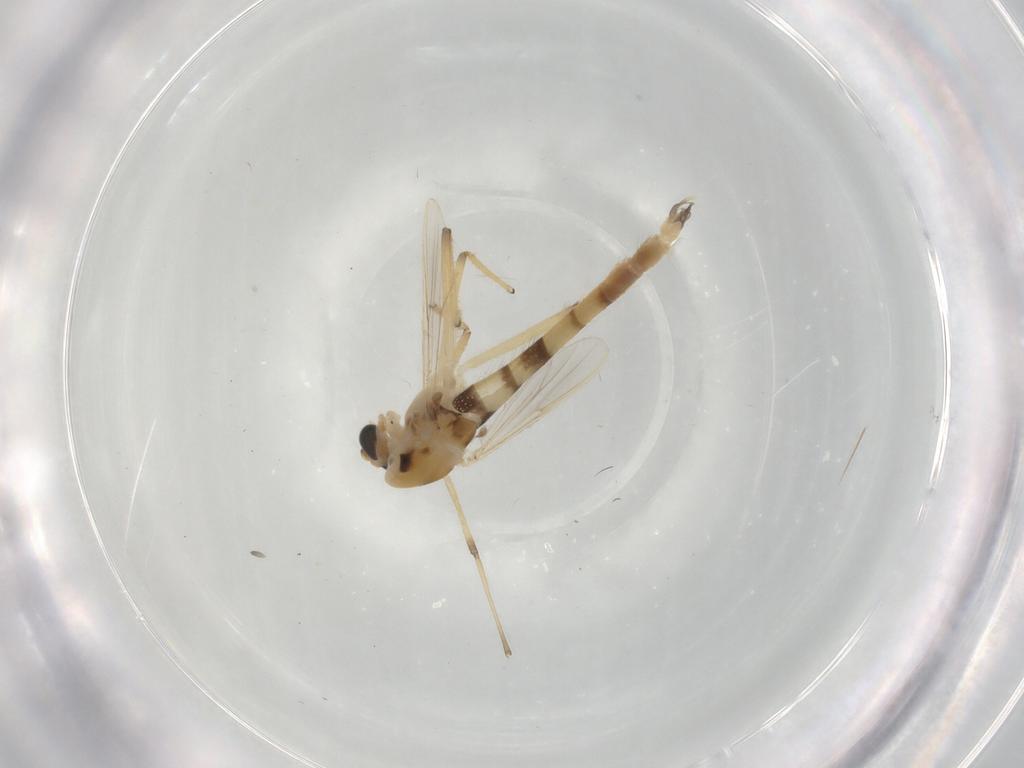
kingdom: Animalia
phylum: Arthropoda
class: Insecta
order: Diptera
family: Chironomidae
